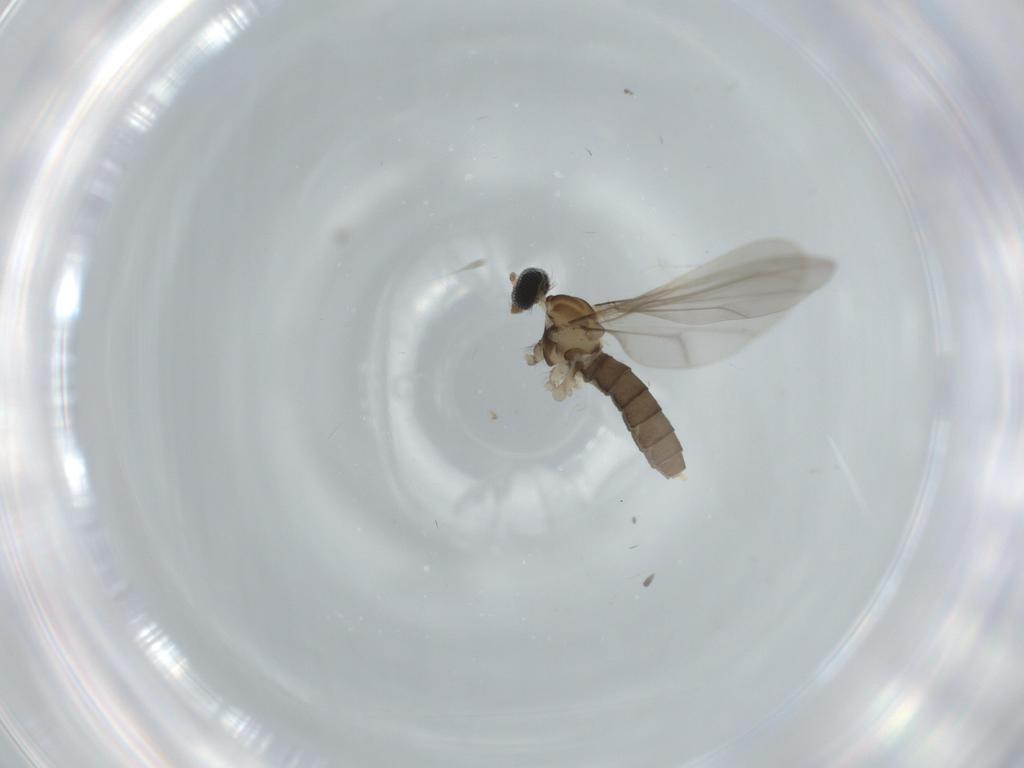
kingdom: Animalia
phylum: Arthropoda
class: Insecta
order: Diptera
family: Cecidomyiidae
